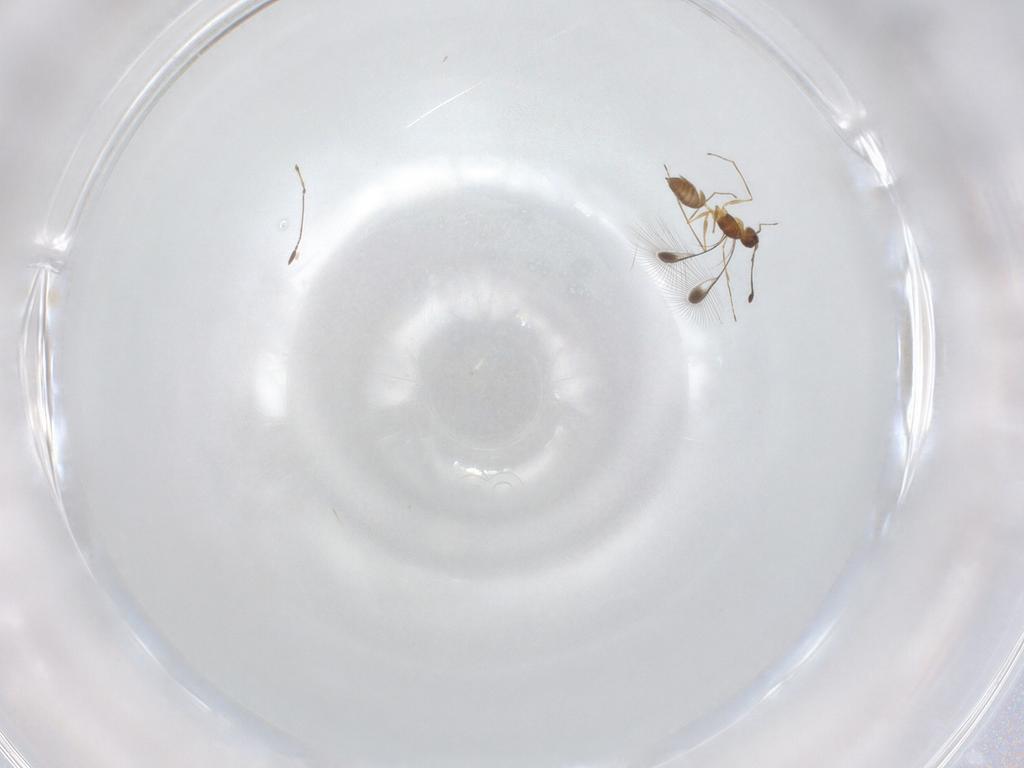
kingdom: Animalia
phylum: Arthropoda
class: Insecta
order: Hymenoptera
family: Mymaridae
